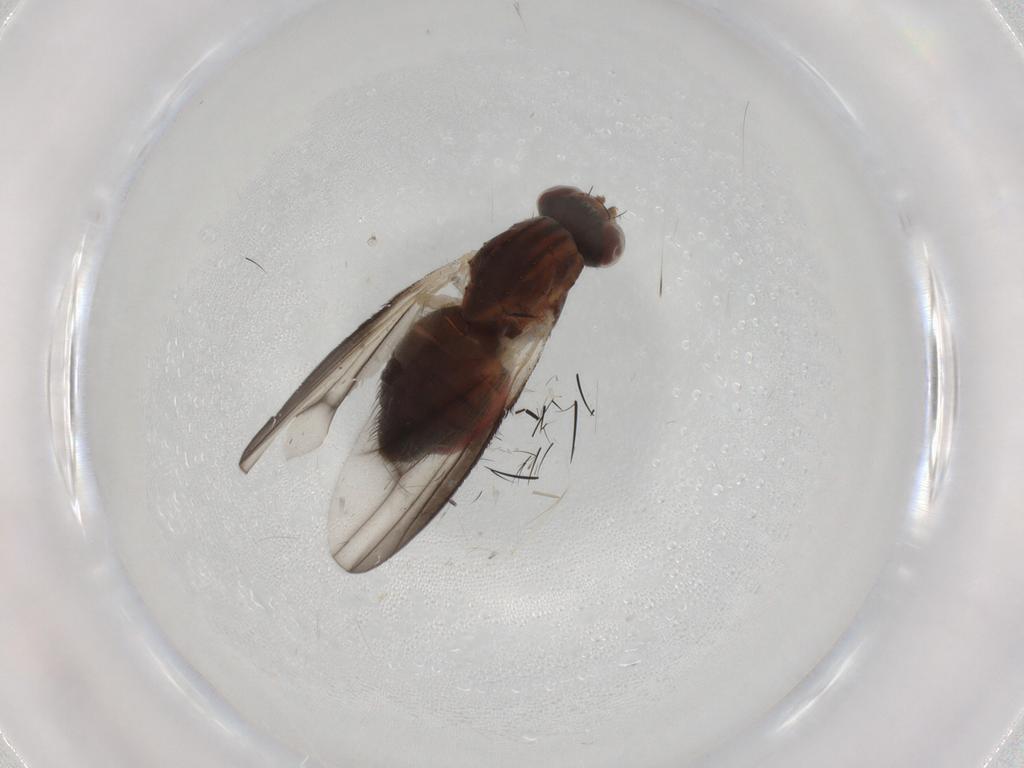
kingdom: Animalia
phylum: Arthropoda
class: Insecta
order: Diptera
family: Heleomyzidae
